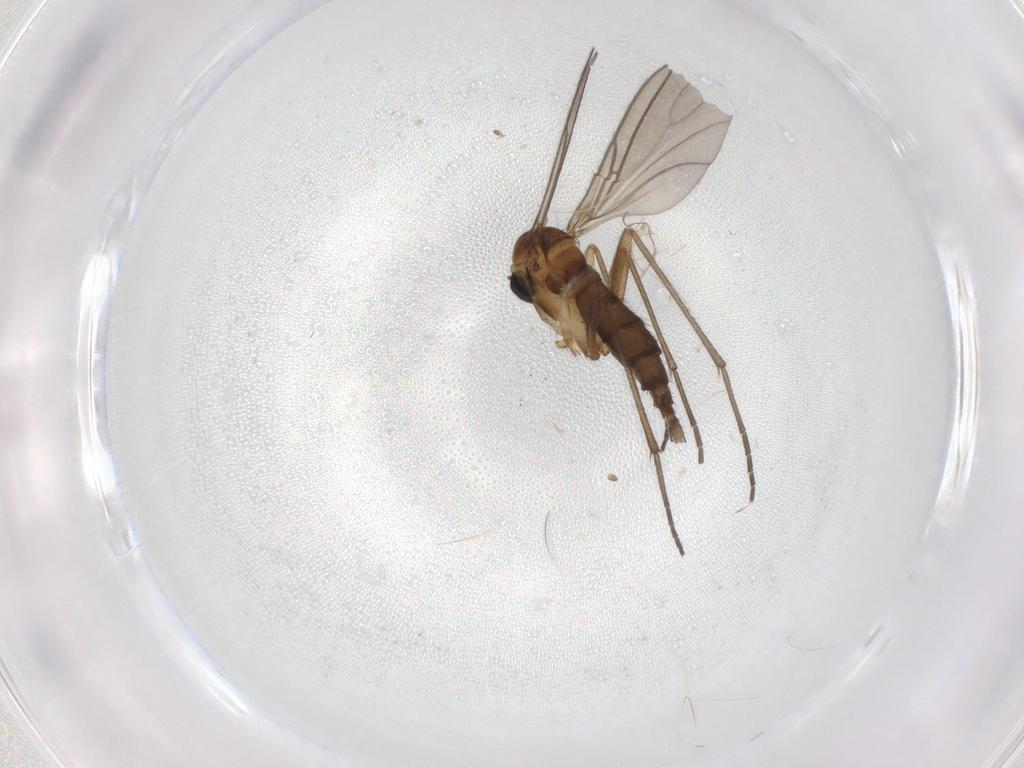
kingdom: Animalia
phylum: Arthropoda
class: Insecta
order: Diptera
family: Sciaridae
